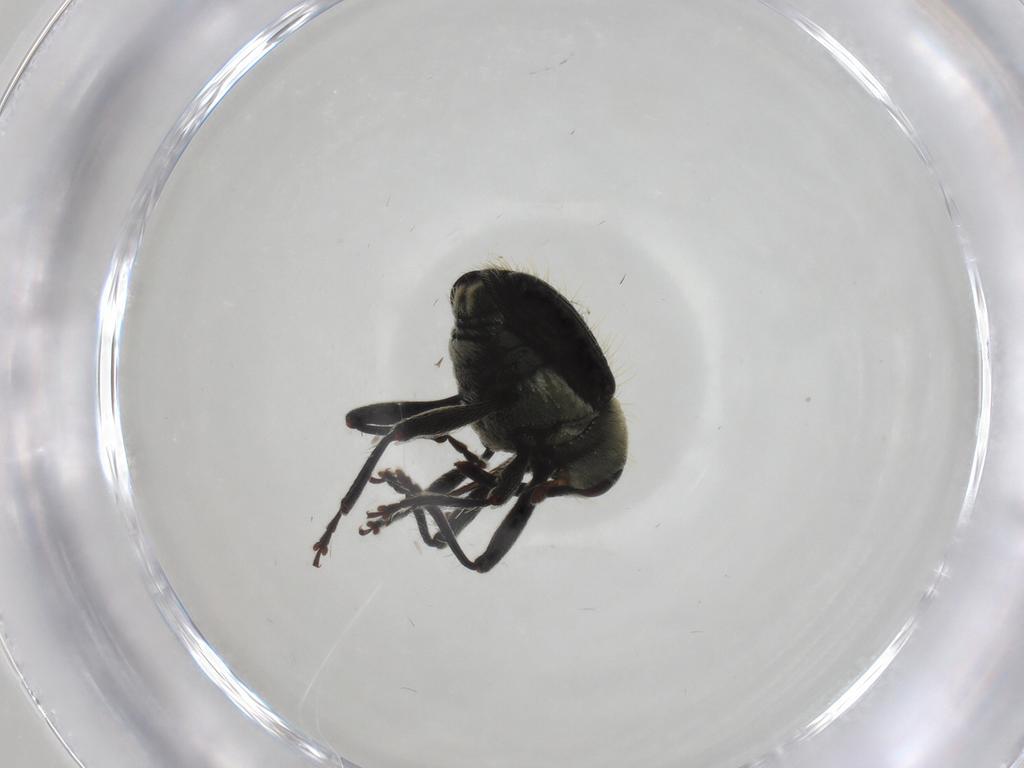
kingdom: Animalia
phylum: Arthropoda
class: Insecta
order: Coleoptera
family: Curculionidae
